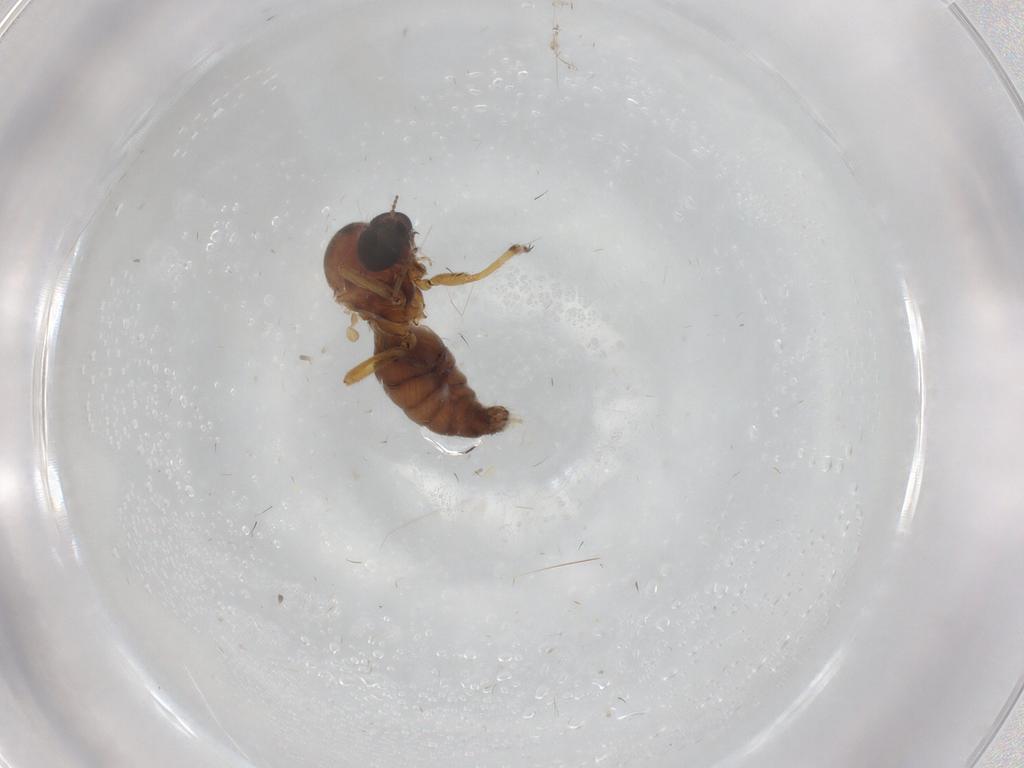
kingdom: Animalia
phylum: Arthropoda
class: Insecta
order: Diptera
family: Ceratopogonidae
